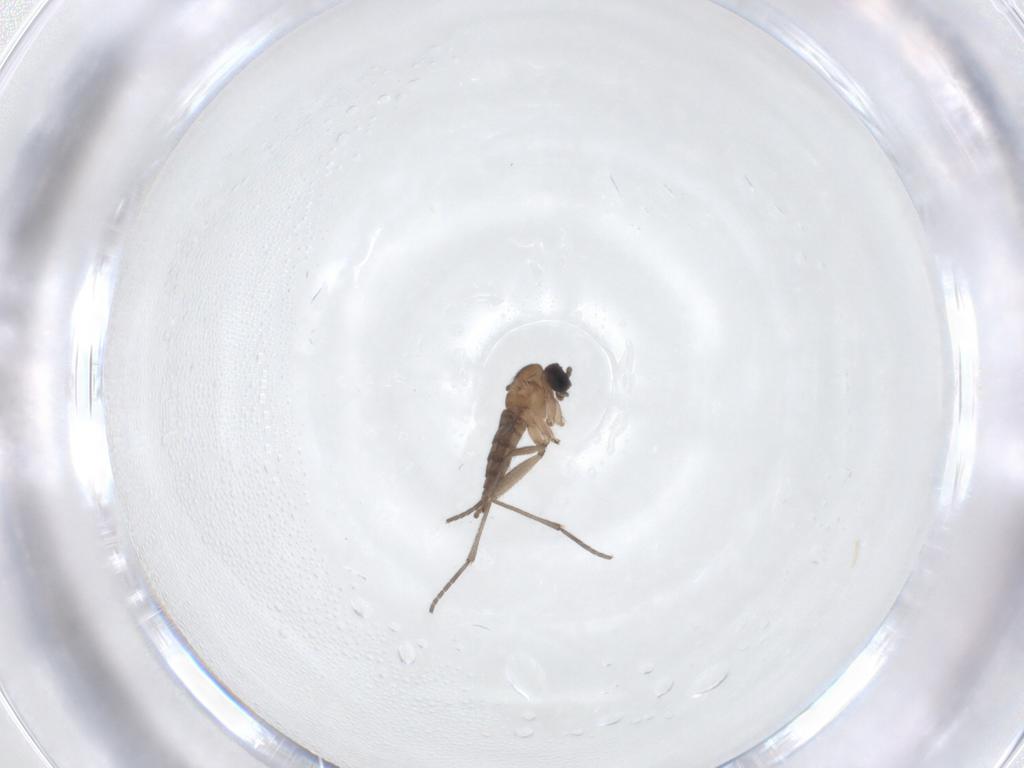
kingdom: Animalia
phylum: Arthropoda
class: Insecta
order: Diptera
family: Sciaridae
